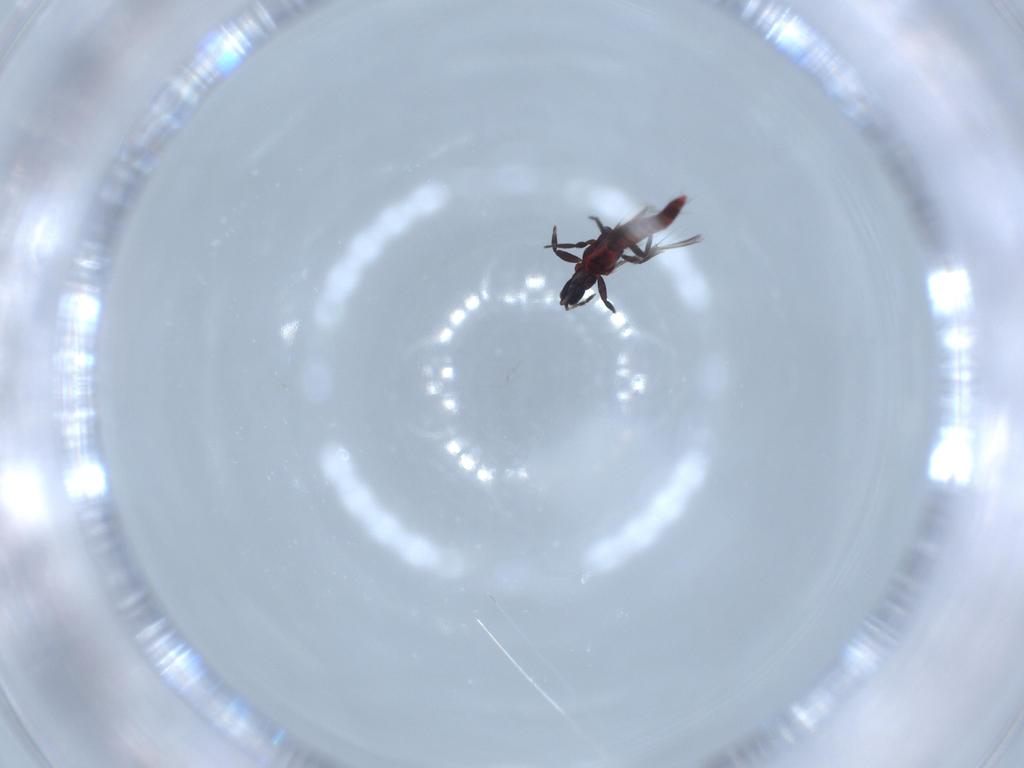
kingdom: Animalia
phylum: Arthropoda
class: Insecta
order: Thysanoptera
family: Aeolothripidae
